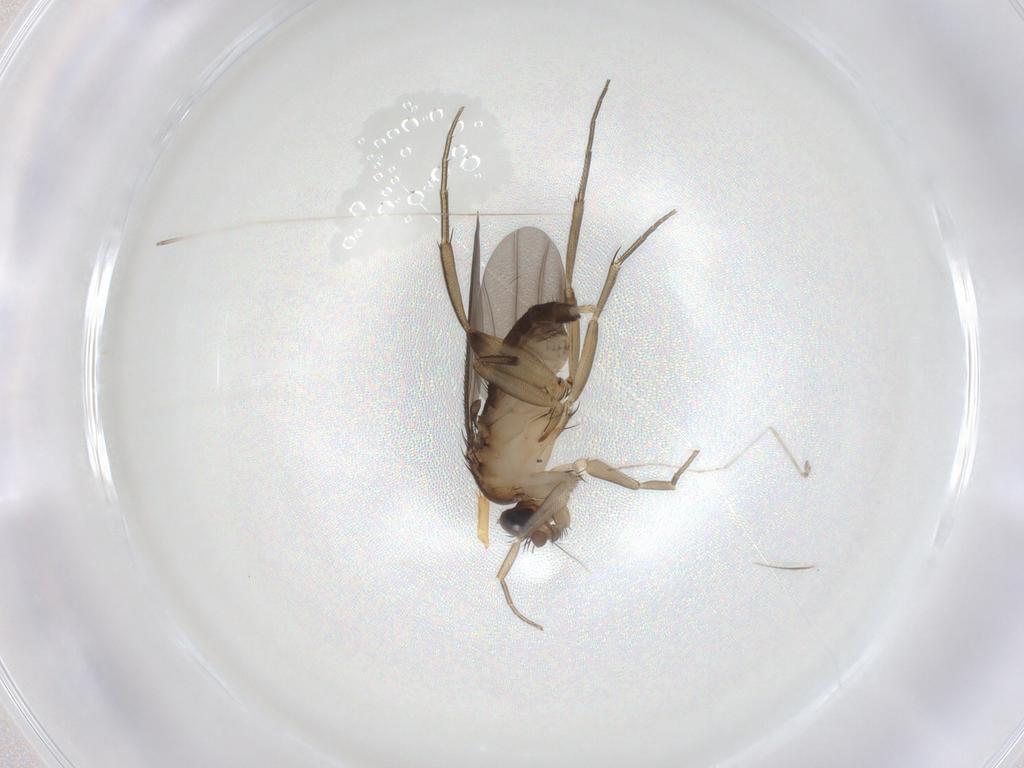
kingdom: Animalia
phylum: Arthropoda
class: Insecta
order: Diptera
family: Phoridae
